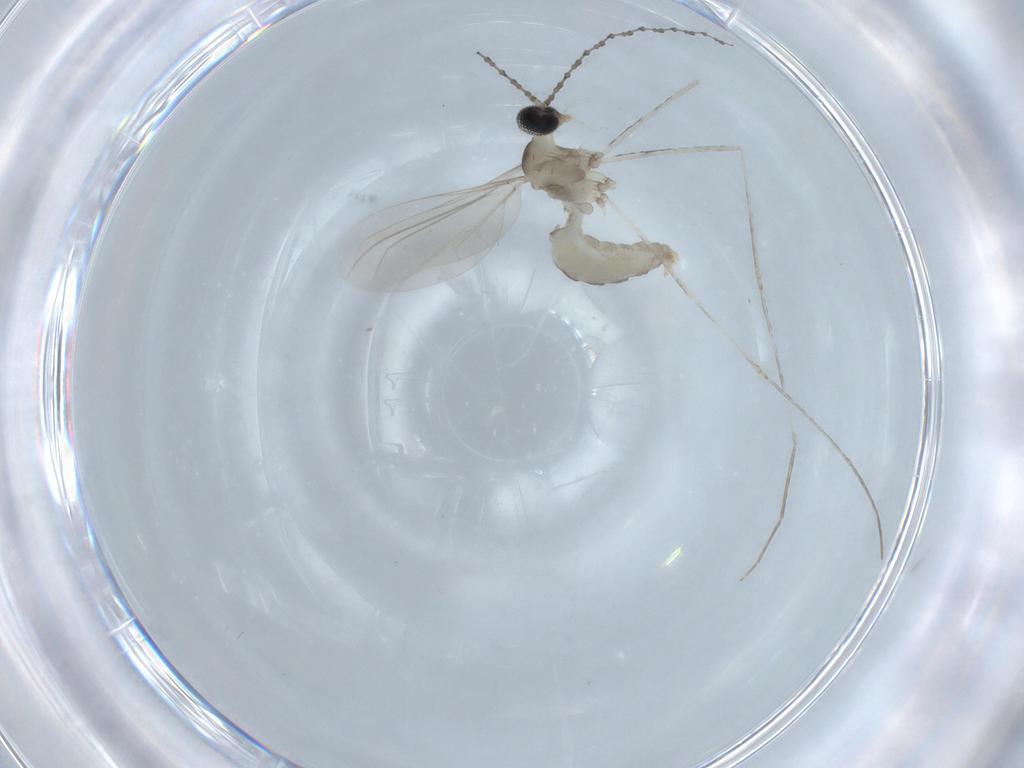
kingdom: Animalia
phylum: Arthropoda
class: Insecta
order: Diptera
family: Cecidomyiidae
